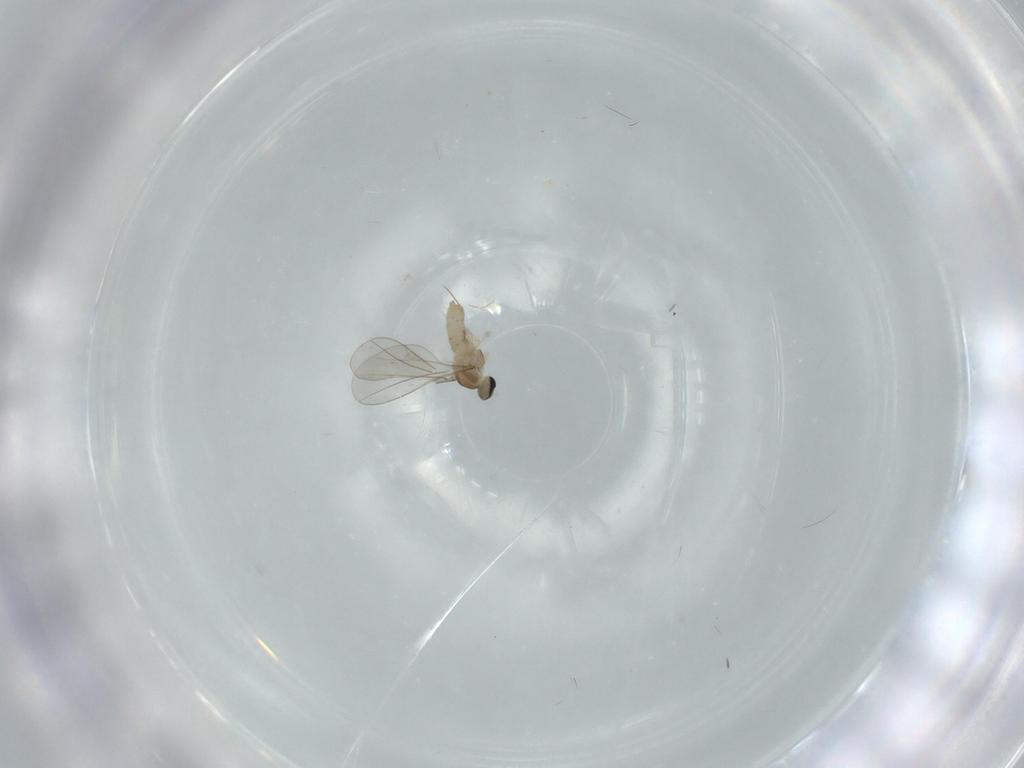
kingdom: Animalia
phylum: Arthropoda
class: Insecta
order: Diptera
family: Cecidomyiidae
